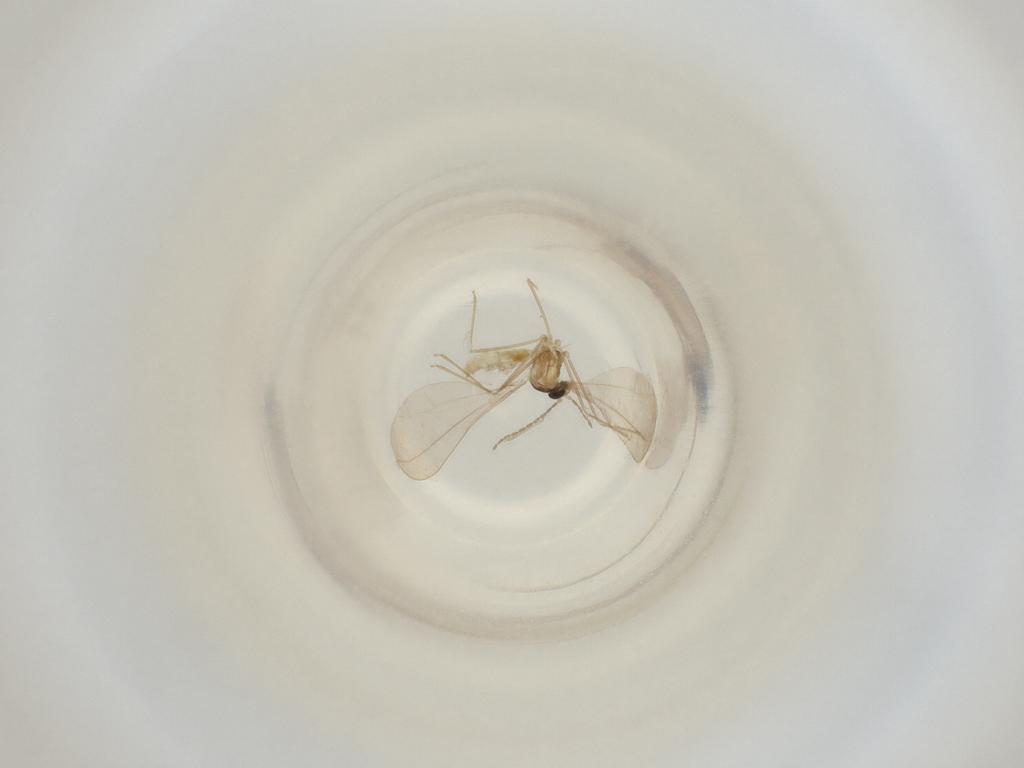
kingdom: Animalia
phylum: Arthropoda
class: Insecta
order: Diptera
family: Cecidomyiidae
